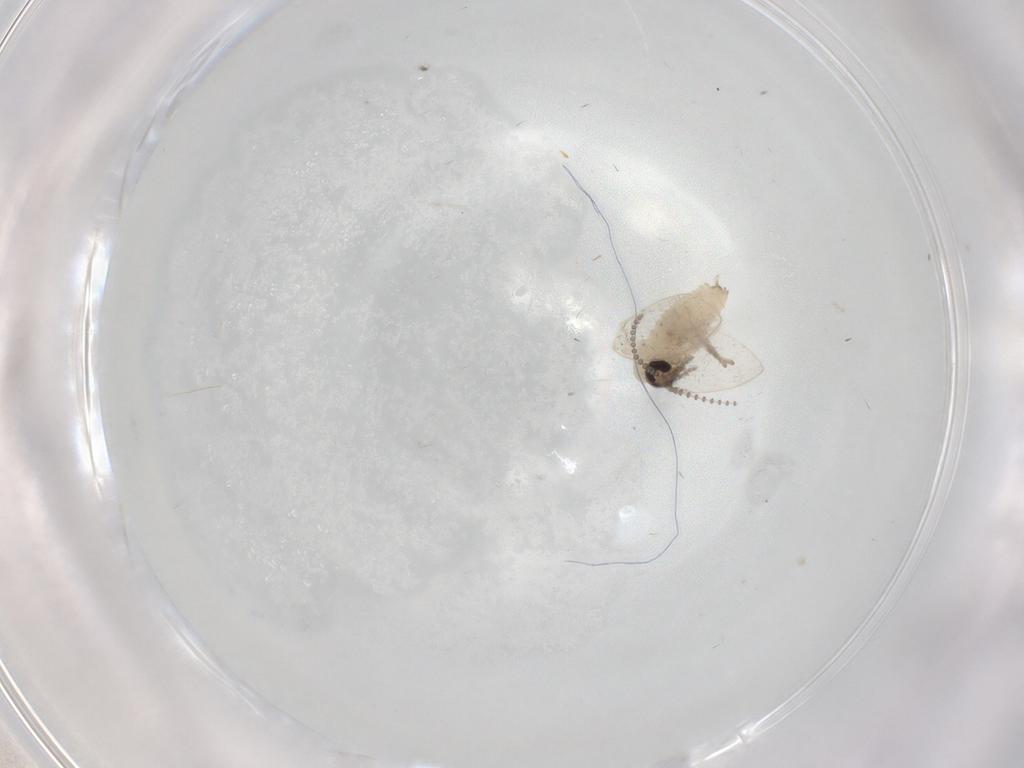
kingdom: Animalia
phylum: Arthropoda
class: Insecta
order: Diptera
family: Psychodidae
